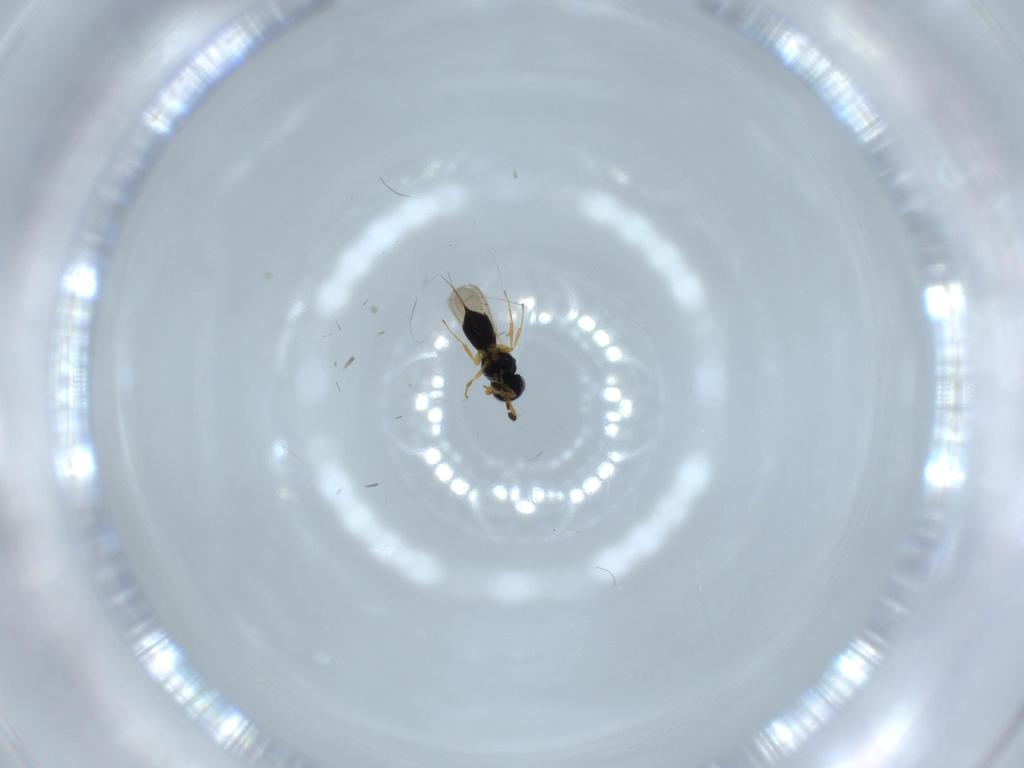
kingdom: Animalia
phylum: Arthropoda
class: Insecta
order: Hymenoptera
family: Scelionidae
